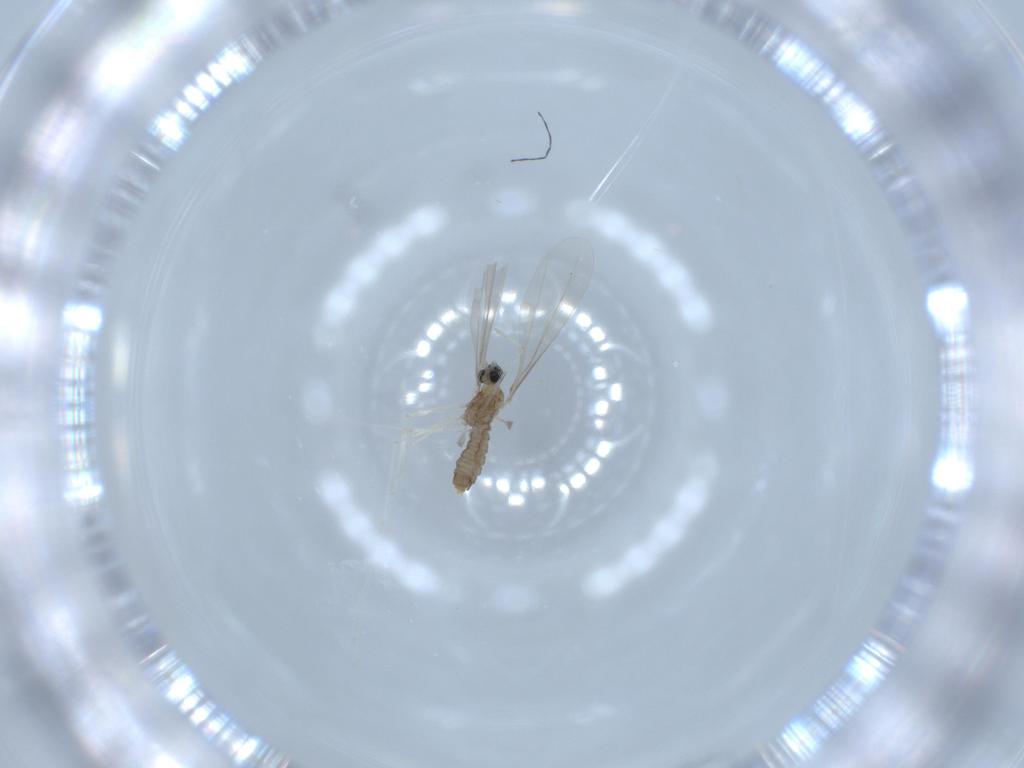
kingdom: Animalia
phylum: Arthropoda
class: Insecta
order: Diptera
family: Cecidomyiidae
